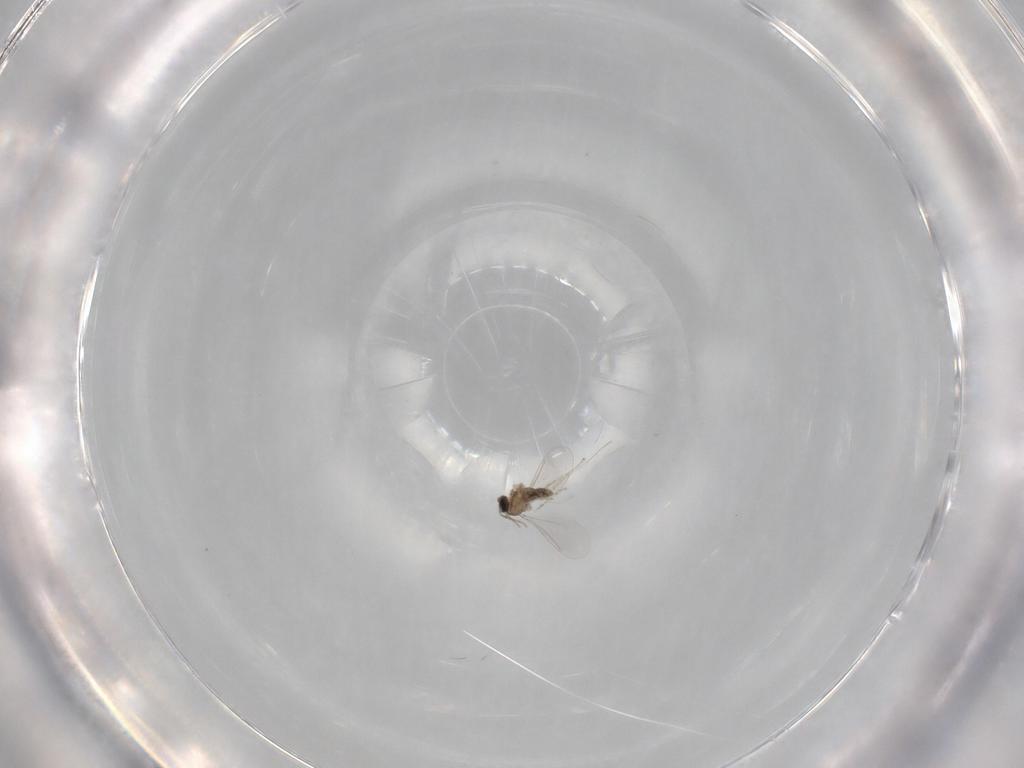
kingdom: Animalia
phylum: Arthropoda
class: Insecta
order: Diptera
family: Cecidomyiidae
